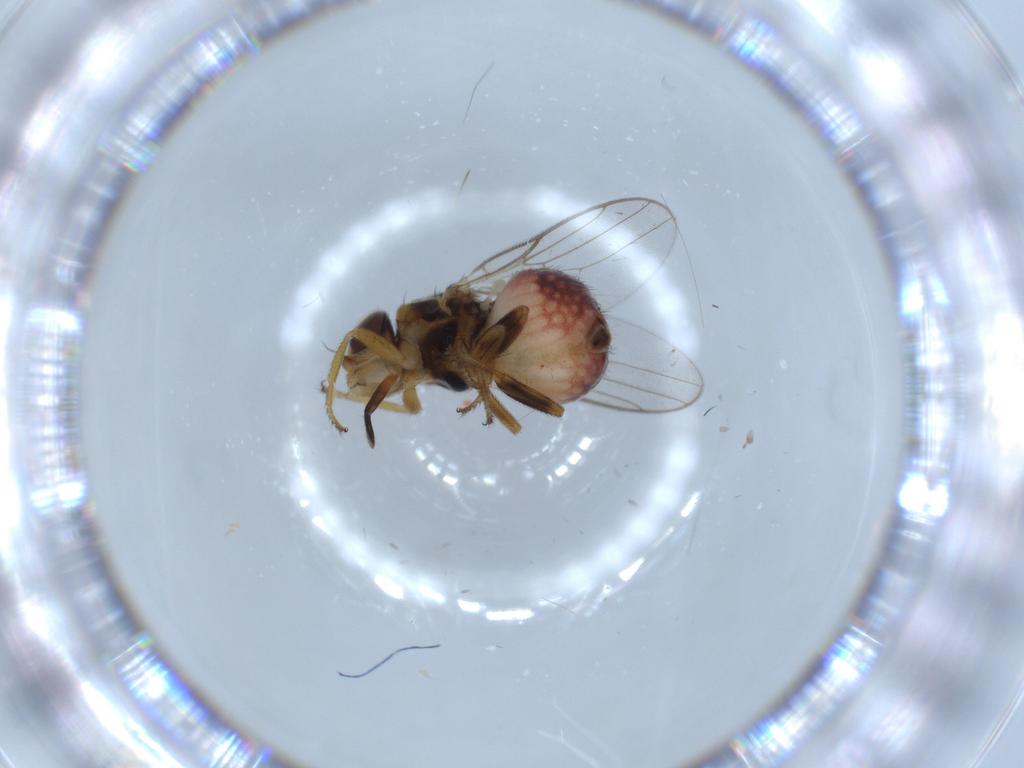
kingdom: Animalia
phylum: Arthropoda
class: Insecta
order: Diptera
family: Chloropidae
